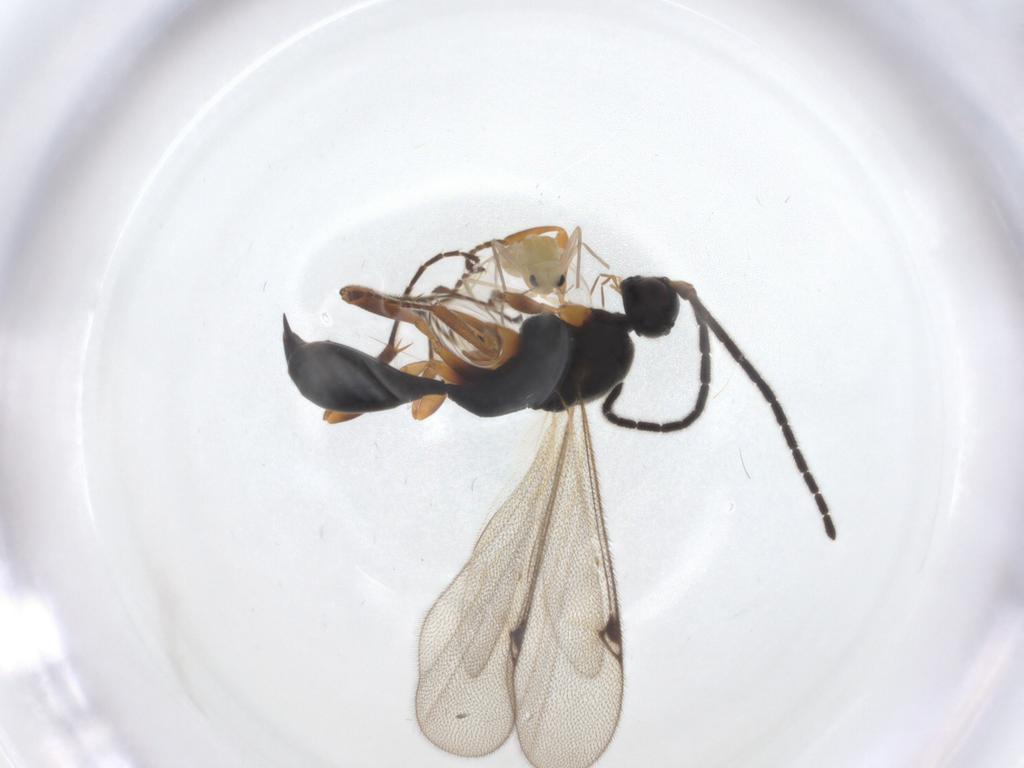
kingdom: Animalia
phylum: Arthropoda
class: Insecta
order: Diptera
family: Chironomidae
